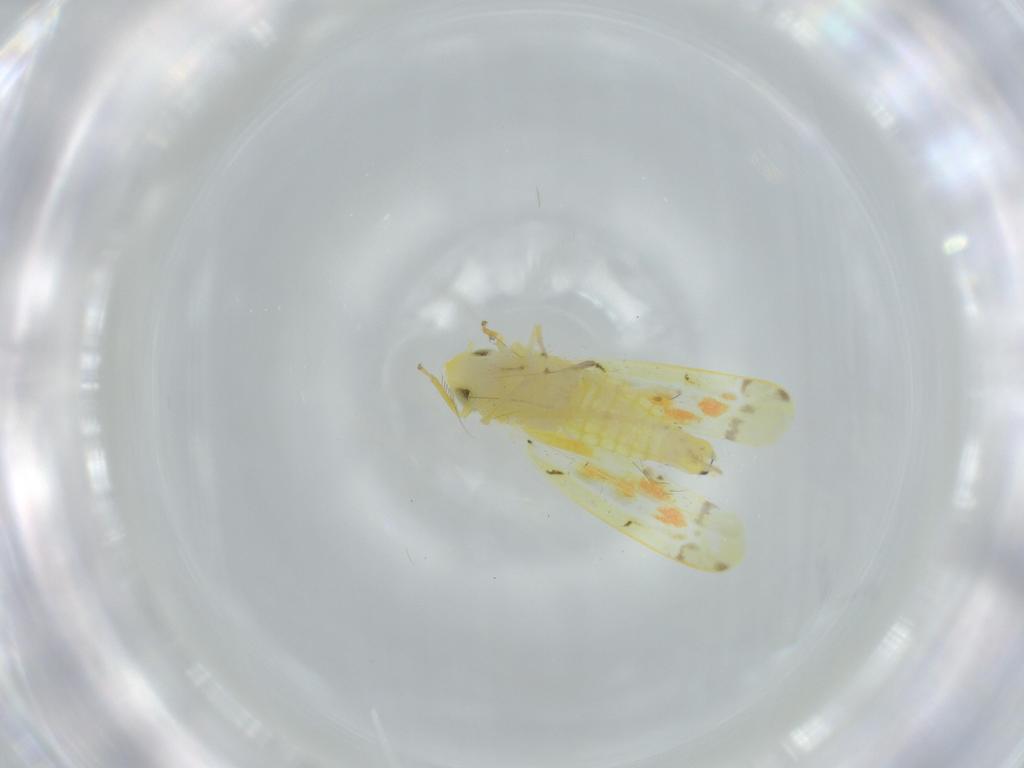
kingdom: Animalia
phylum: Arthropoda
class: Insecta
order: Hemiptera
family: Cicadellidae
